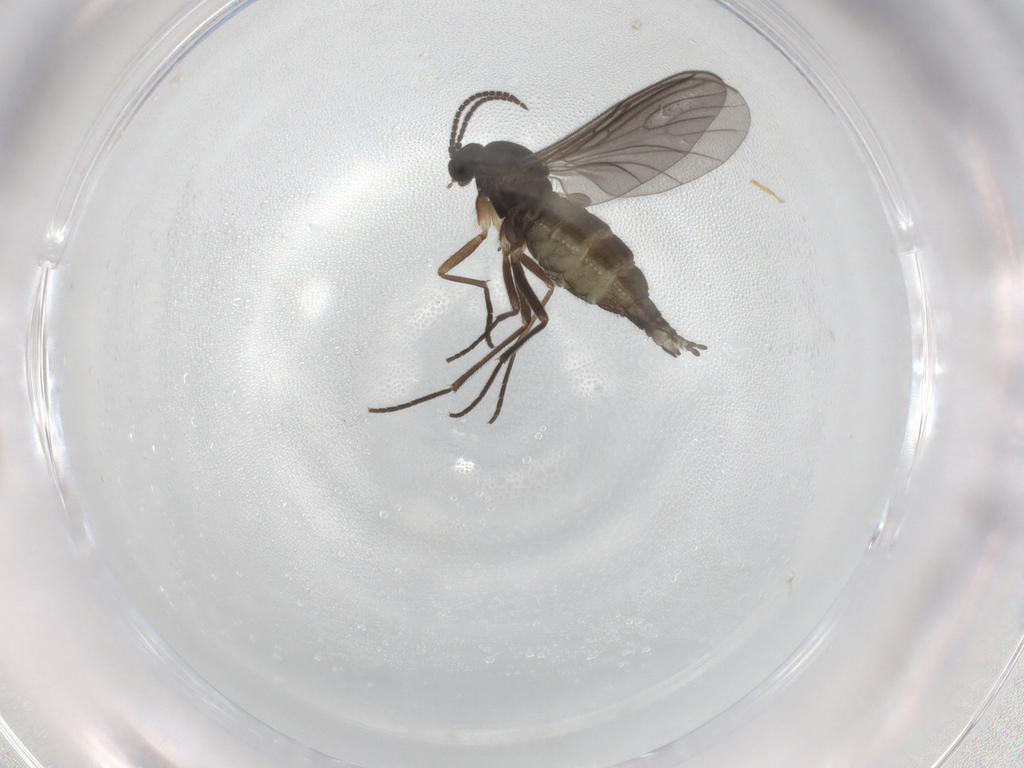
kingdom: Animalia
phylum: Arthropoda
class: Insecta
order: Diptera
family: Sciaridae
